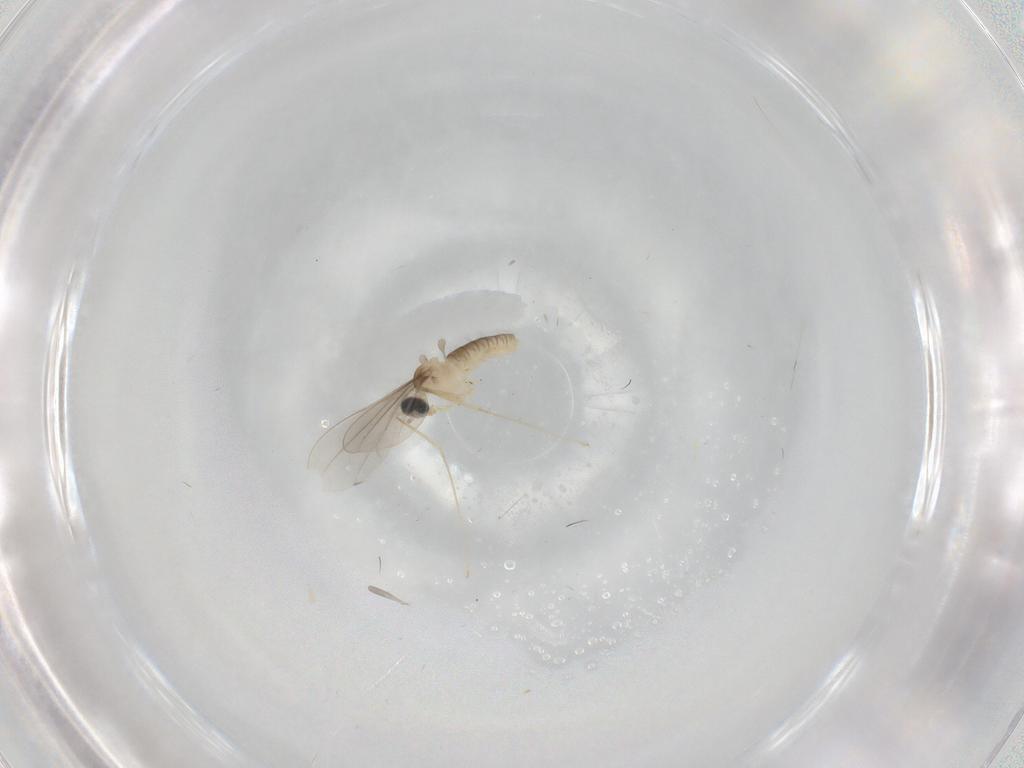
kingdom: Animalia
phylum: Arthropoda
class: Insecta
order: Diptera
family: Cecidomyiidae
